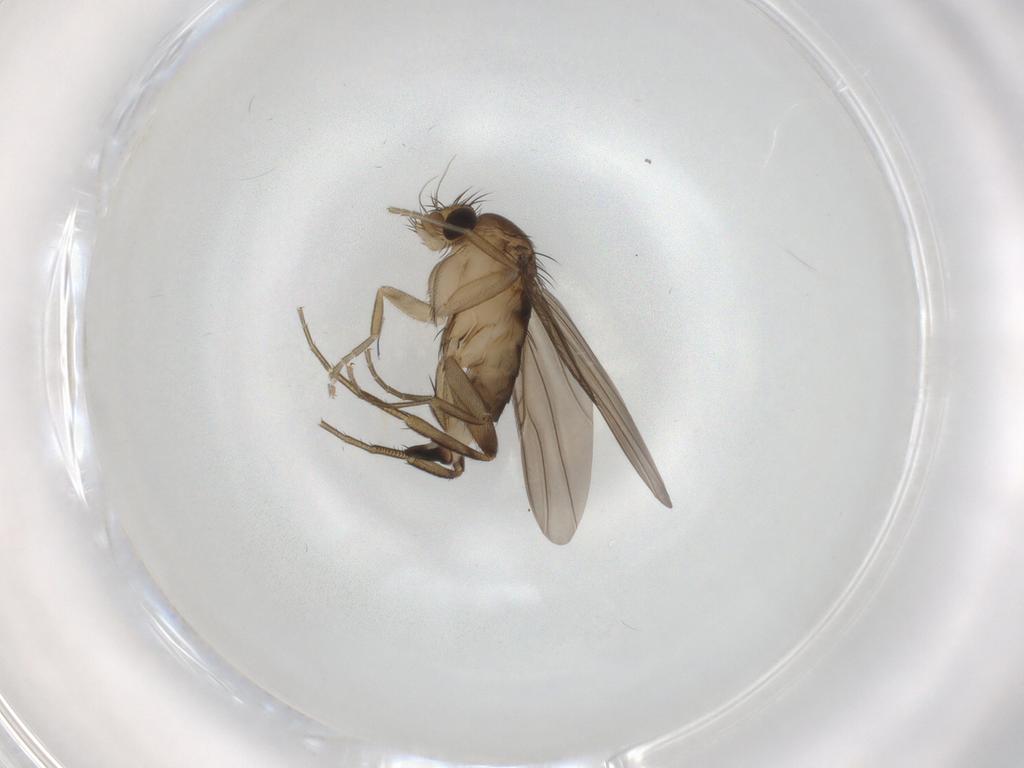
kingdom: Animalia
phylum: Arthropoda
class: Insecta
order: Diptera
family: Phoridae
